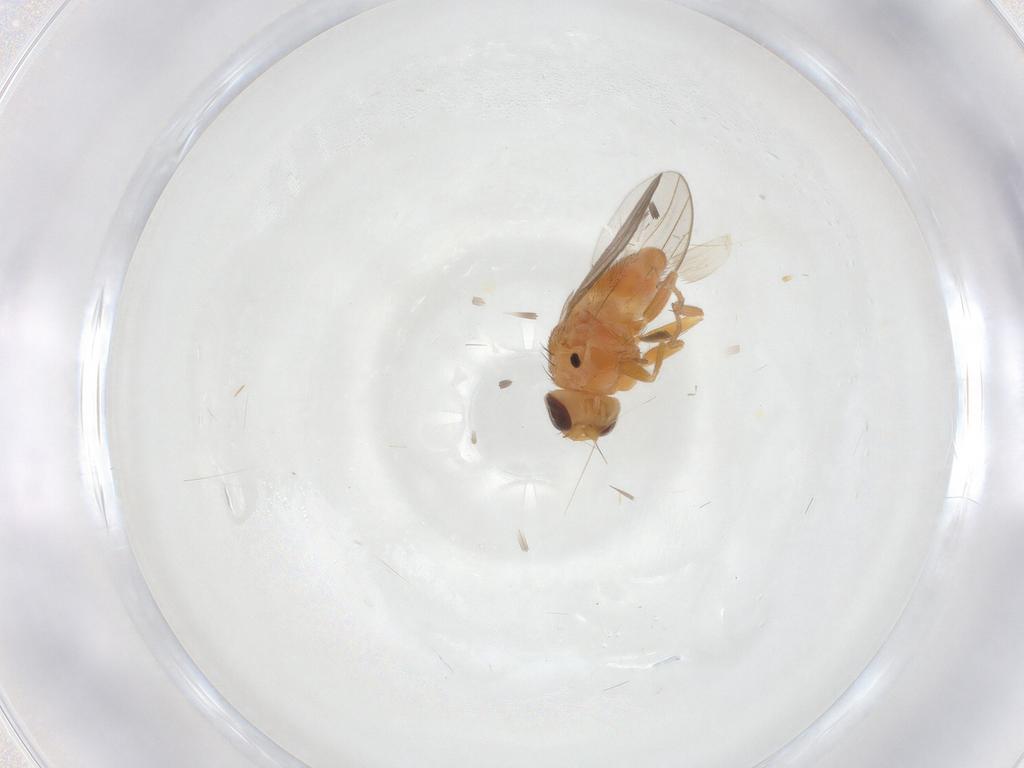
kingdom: Animalia
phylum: Arthropoda
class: Insecta
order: Diptera
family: Chloropidae
